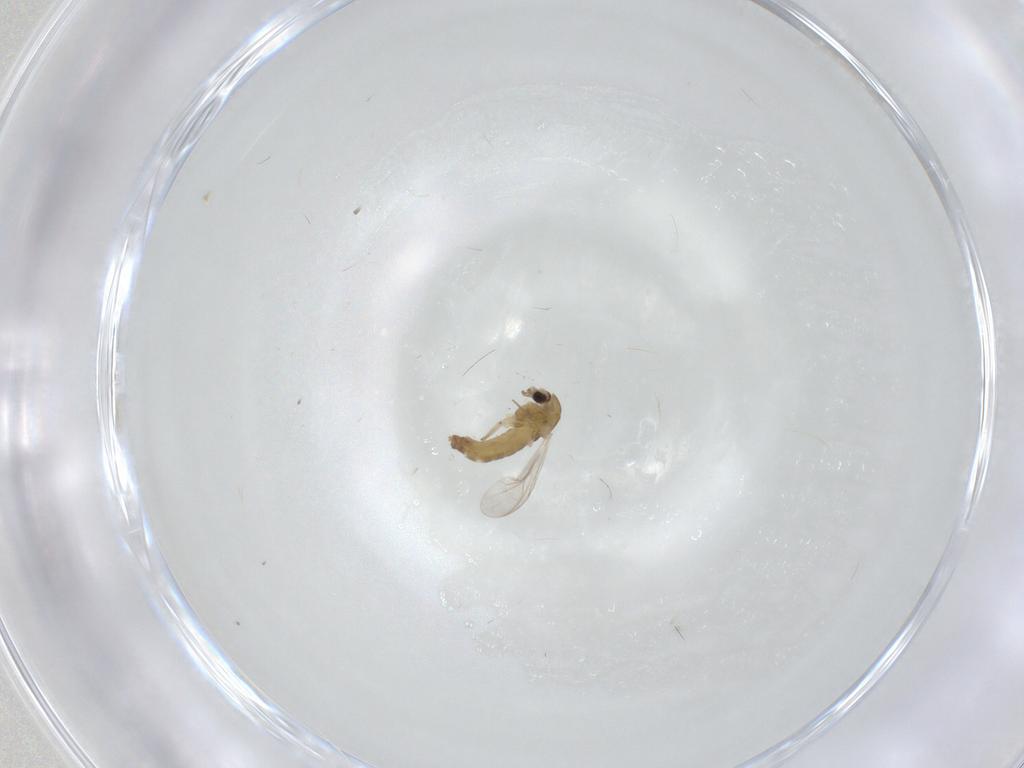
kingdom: Animalia
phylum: Arthropoda
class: Insecta
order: Diptera
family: Chironomidae
